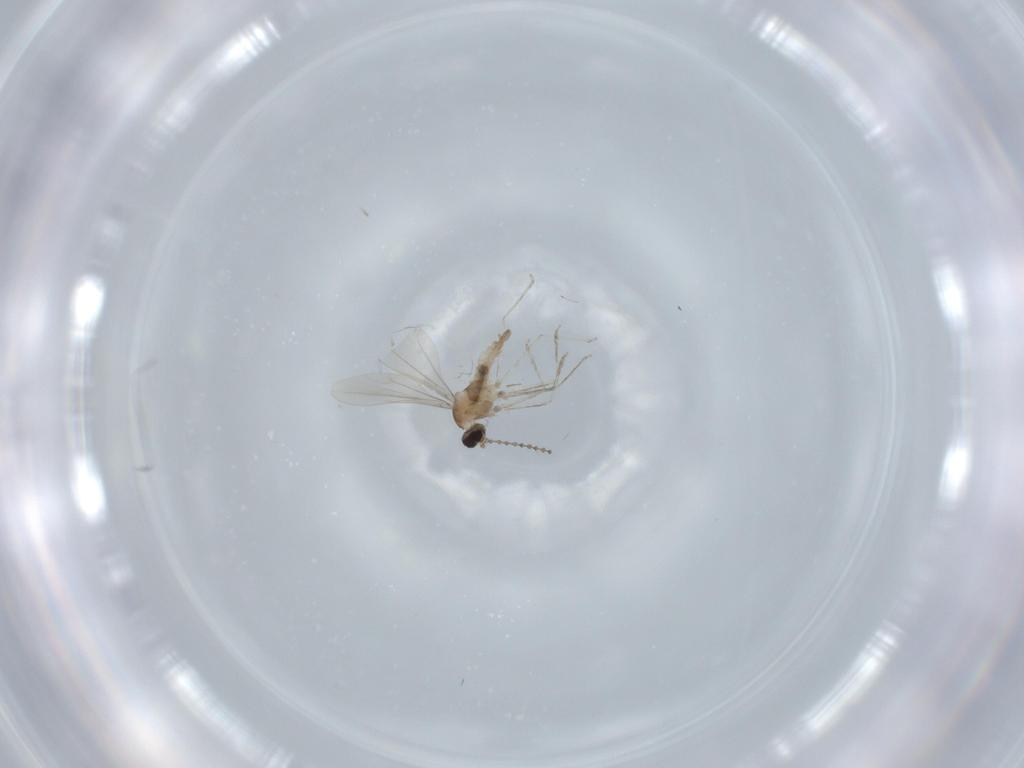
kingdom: Animalia
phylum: Arthropoda
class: Insecta
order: Diptera
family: Cecidomyiidae
